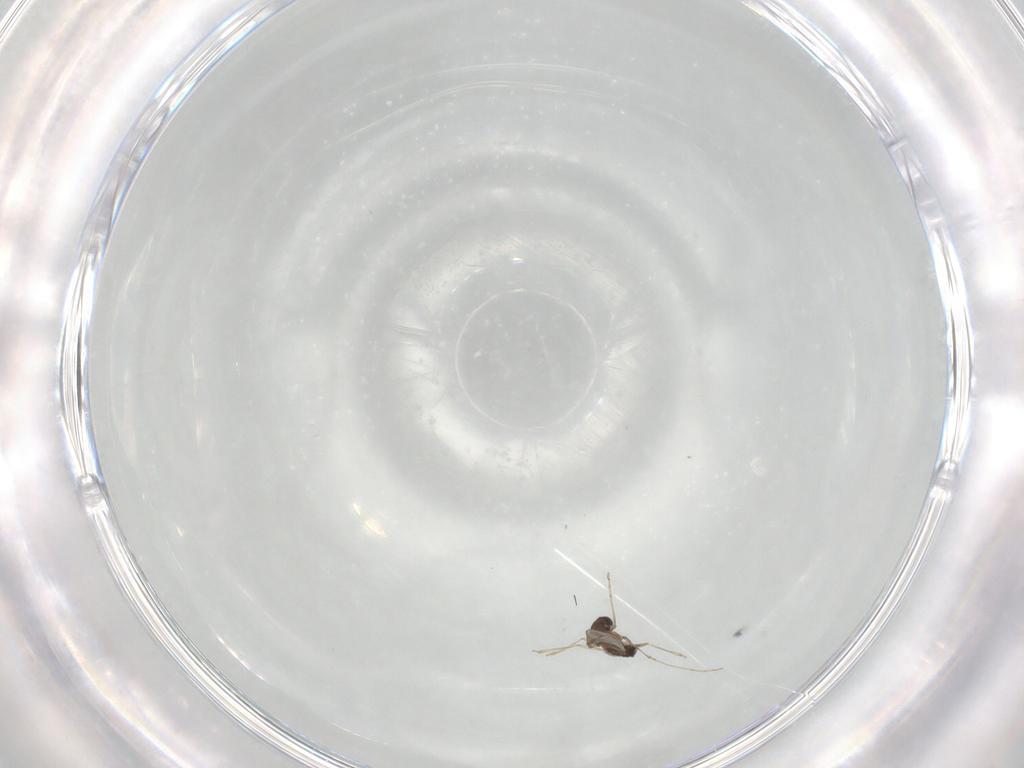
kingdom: Animalia
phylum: Arthropoda
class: Insecta
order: Diptera
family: Cecidomyiidae
